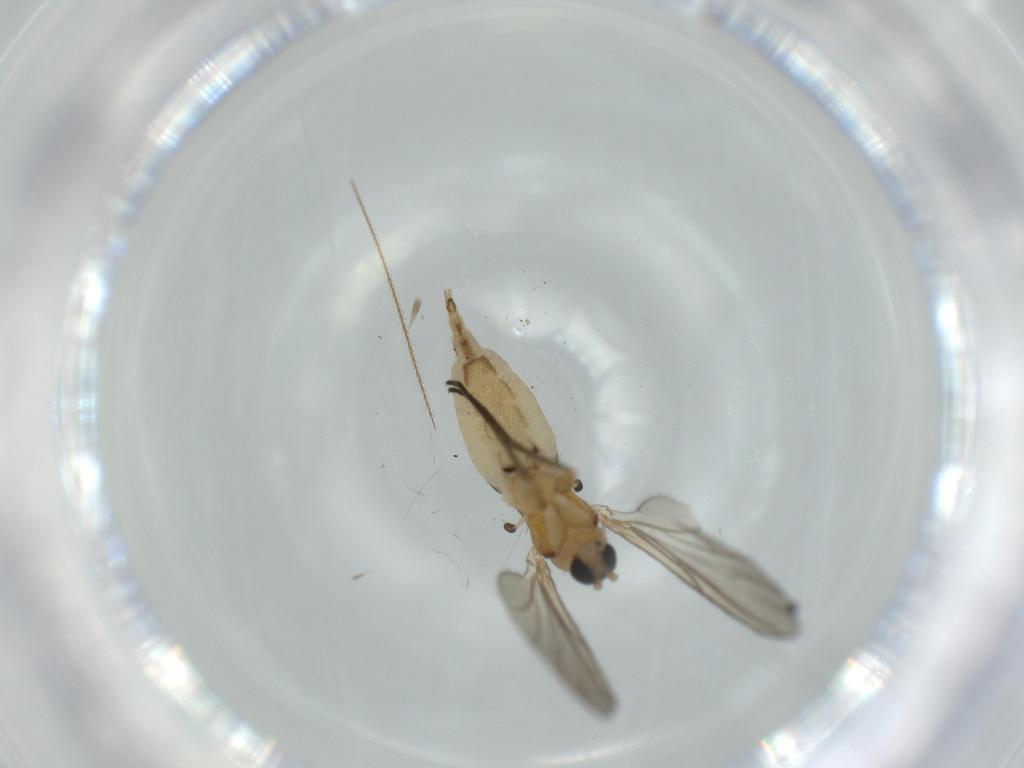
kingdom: Animalia
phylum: Arthropoda
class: Insecta
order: Diptera
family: Sciaridae
